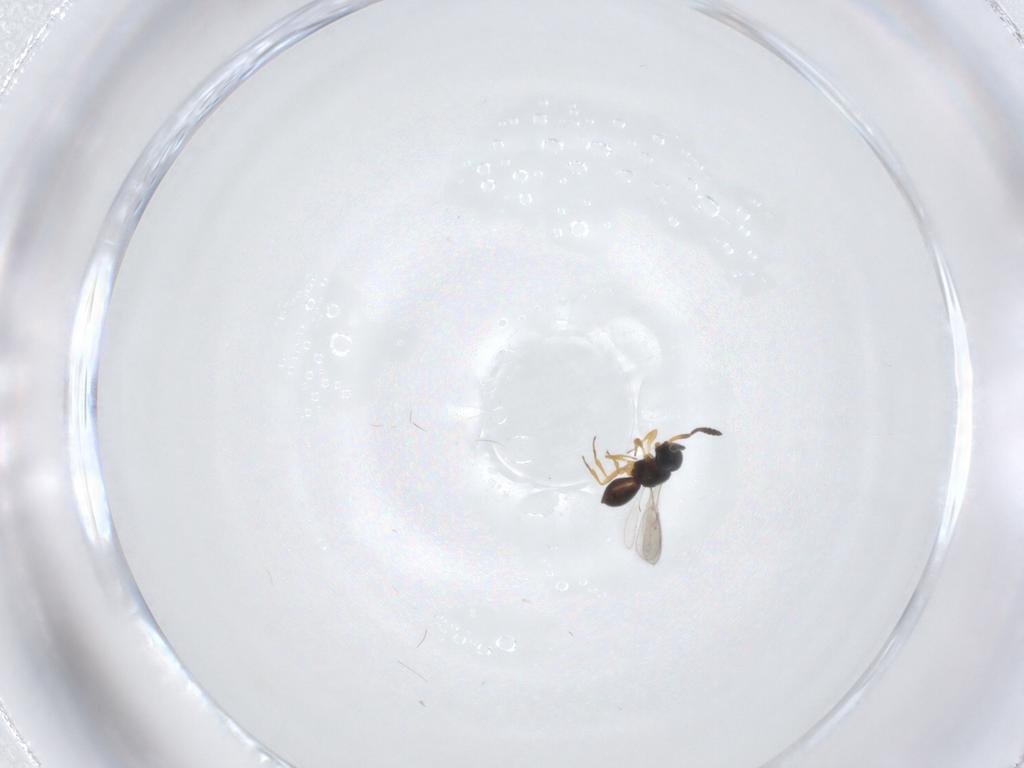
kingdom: Animalia
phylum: Arthropoda
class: Insecta
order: Hymenoptera
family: Scelionidae
